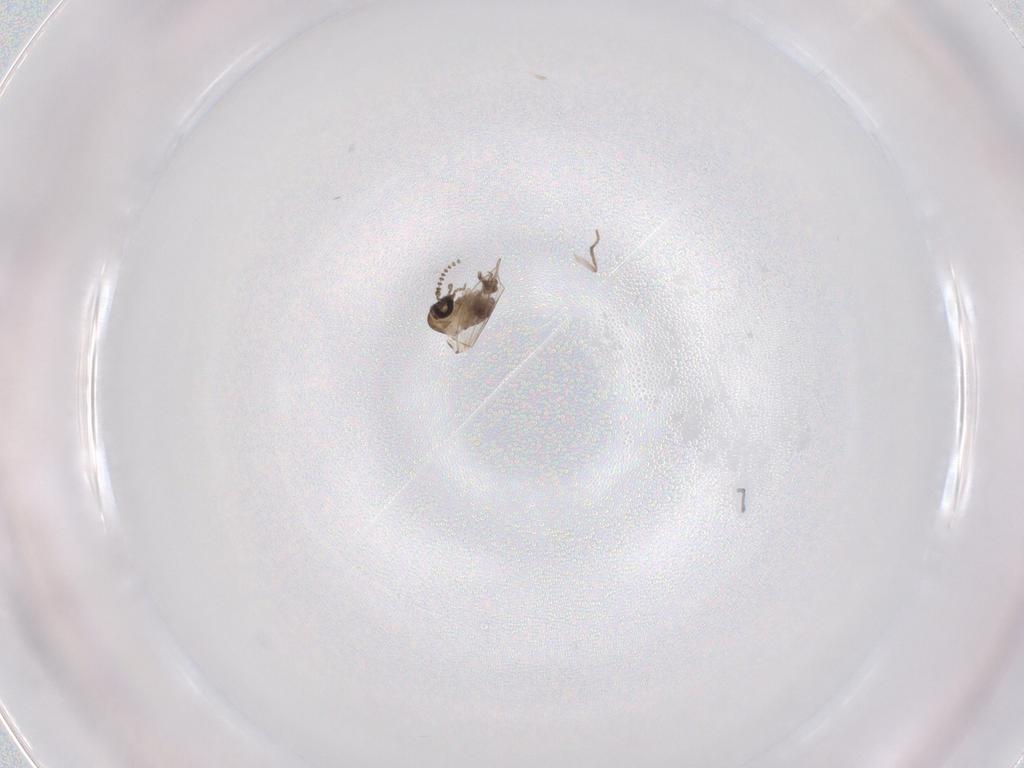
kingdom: Animalia
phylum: Arthropoda
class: Insecta
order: Diptera
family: Psychodidae
